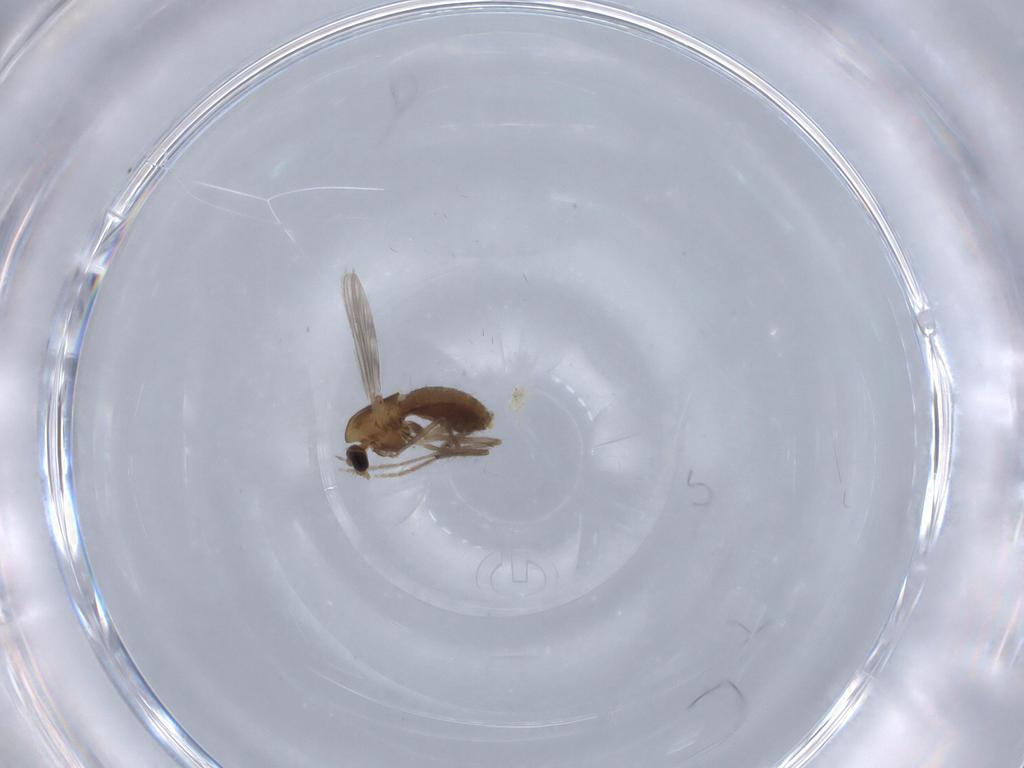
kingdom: Animalia
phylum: Arthropoda
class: Insecta
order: Diptera
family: Chironomidae
